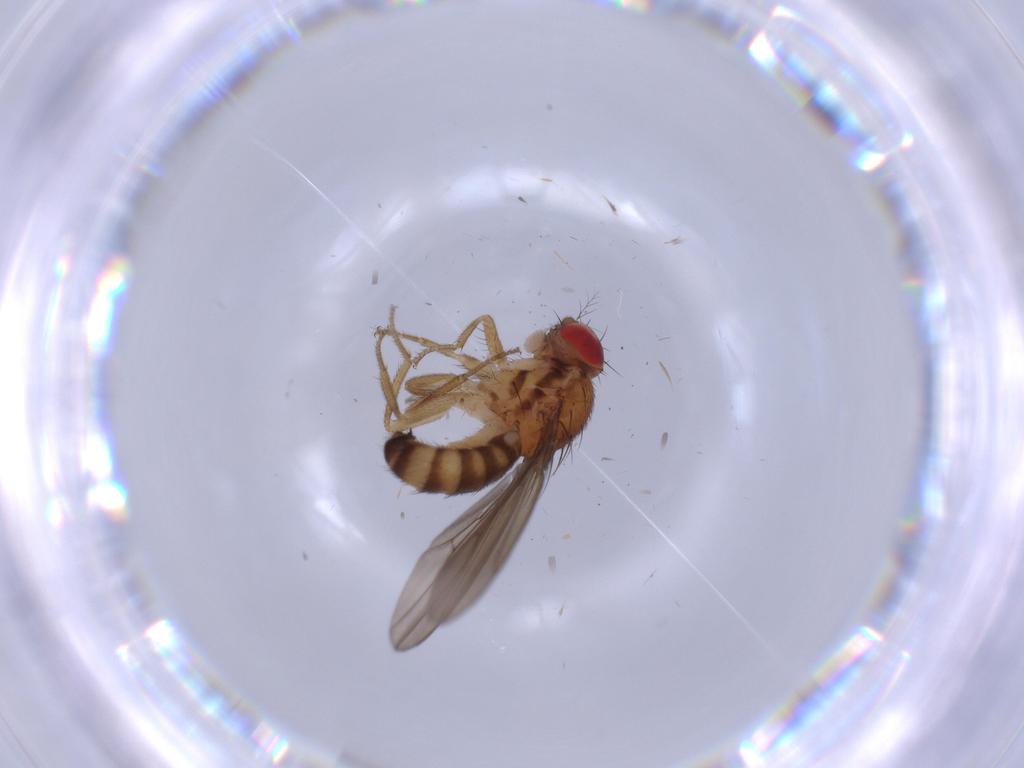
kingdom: Animalia
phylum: Arthropoda
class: Insecta
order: Diptera
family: Drosophilidae
